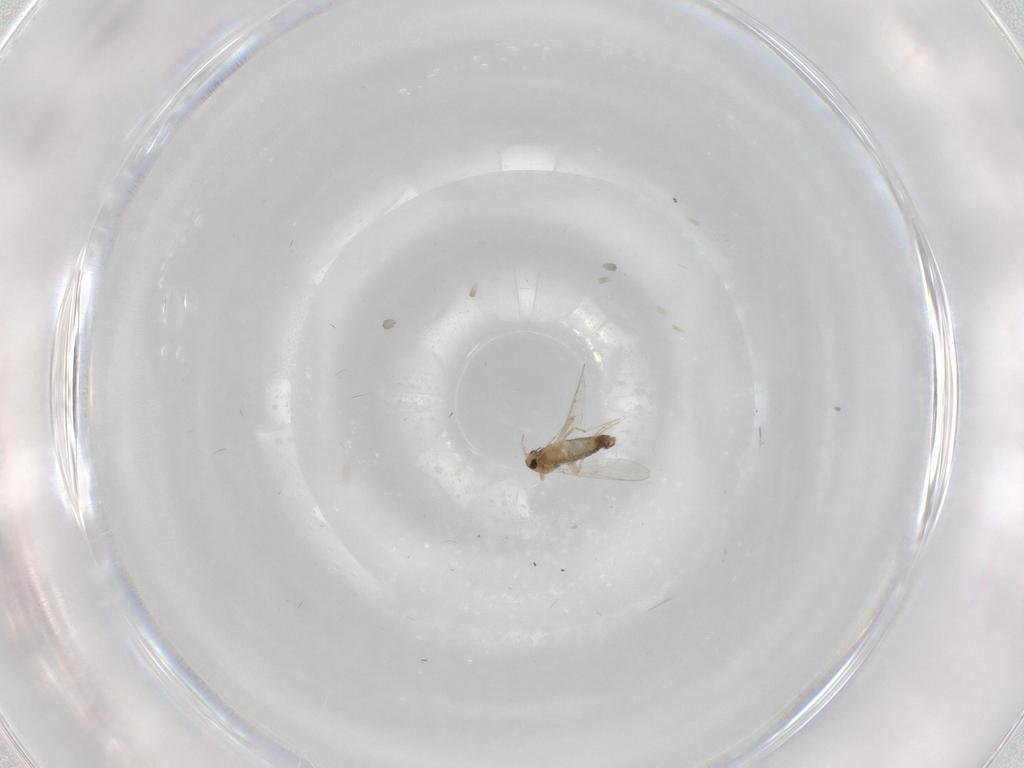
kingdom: Animalia
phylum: Arthropoda
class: Insecta
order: Diptera
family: Chironomidae
